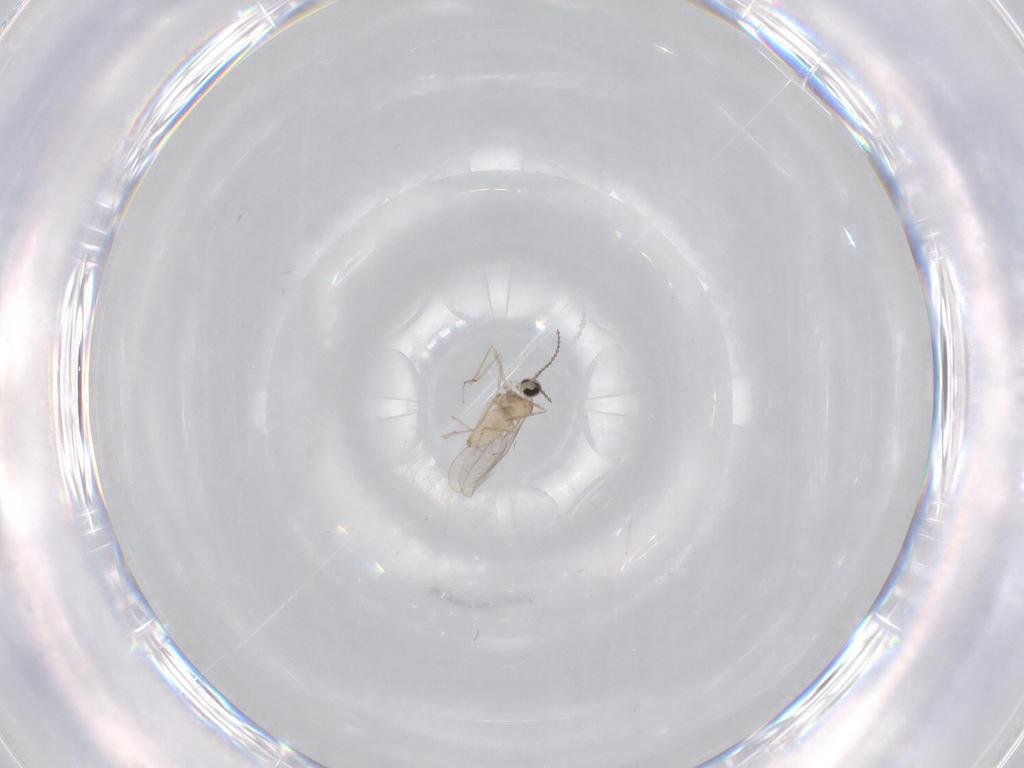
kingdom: Animalia
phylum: Arthropoda
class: Insecta
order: Diptera
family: Cecidomyiidae
